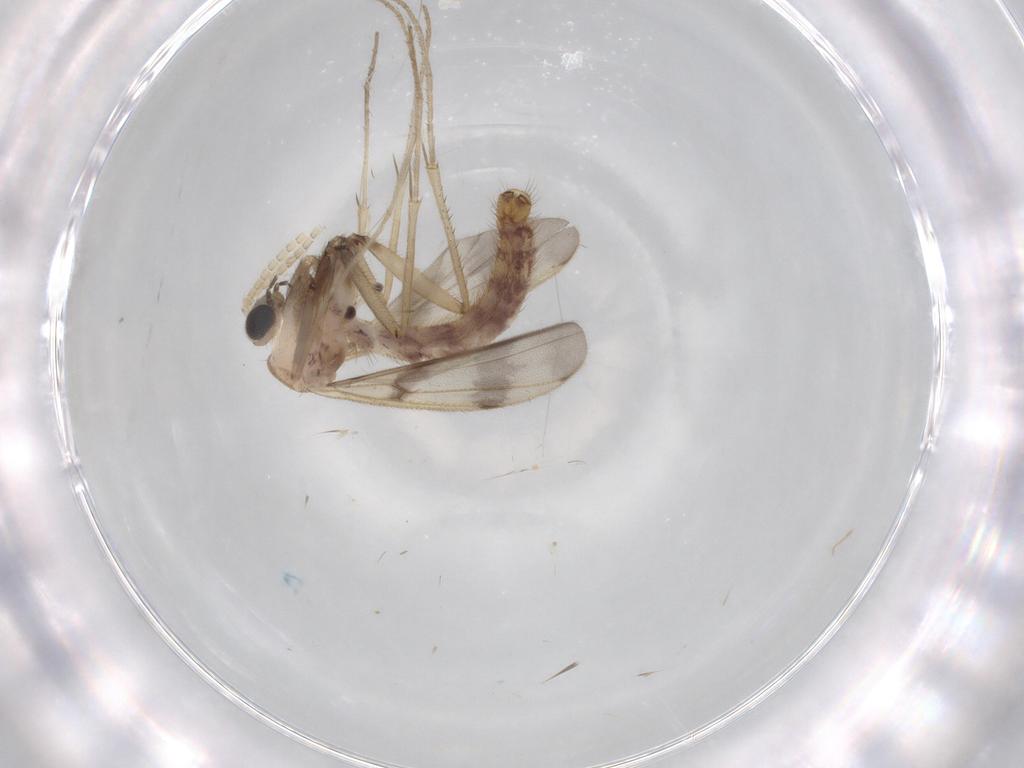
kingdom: Animalia
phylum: Arthropoda
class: Insecta
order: Diptera
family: Mycetophilidae
